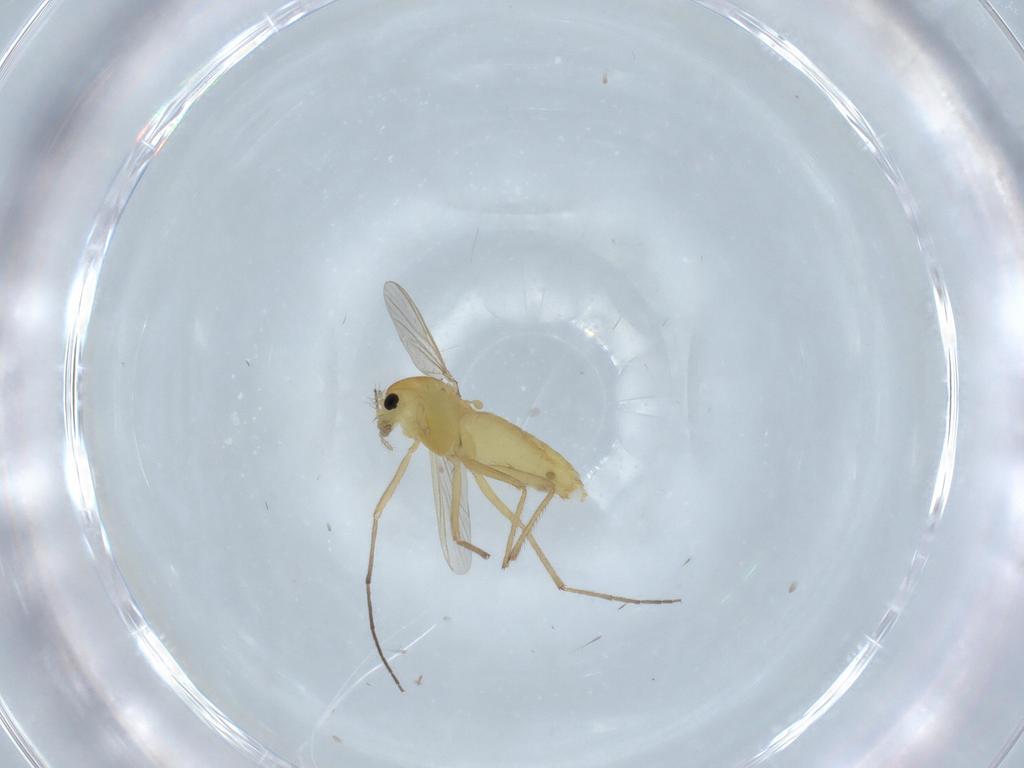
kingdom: Animalia
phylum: Arthropoda
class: Insecta
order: Diptera
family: Chironomidae
